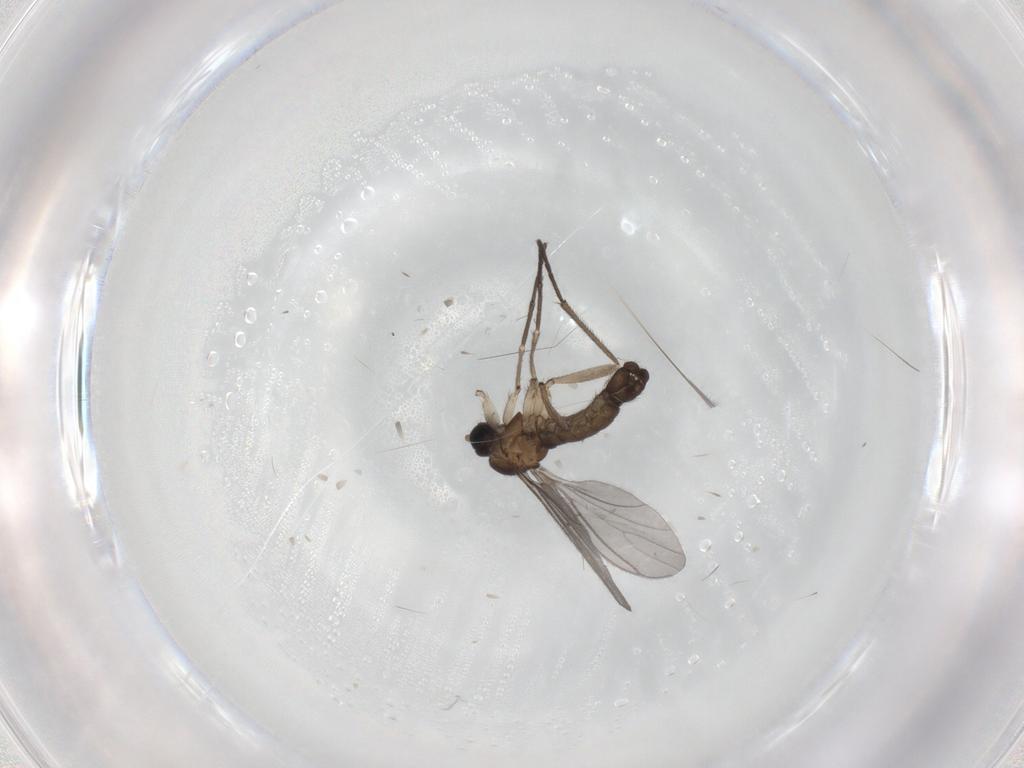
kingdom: Animalia
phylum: Arthropoda
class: Insecta
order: Diptera
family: Sciaridae
